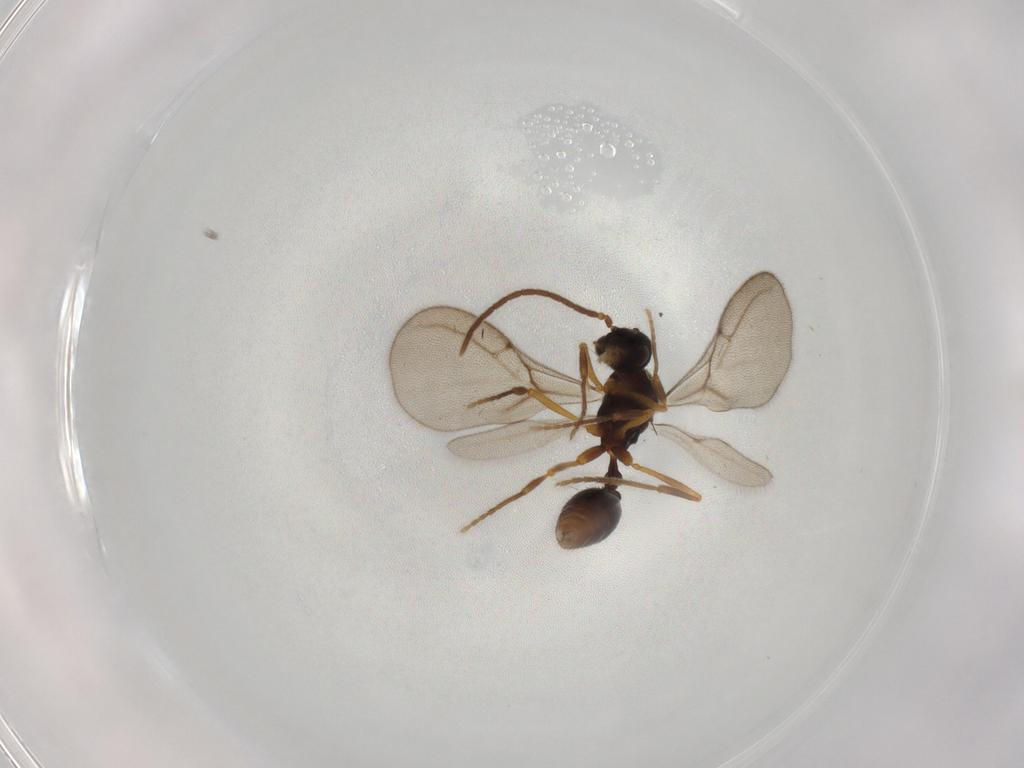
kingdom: Animalia
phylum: Arthropoda
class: Insecta
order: Hymenoptera
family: Formicidae
